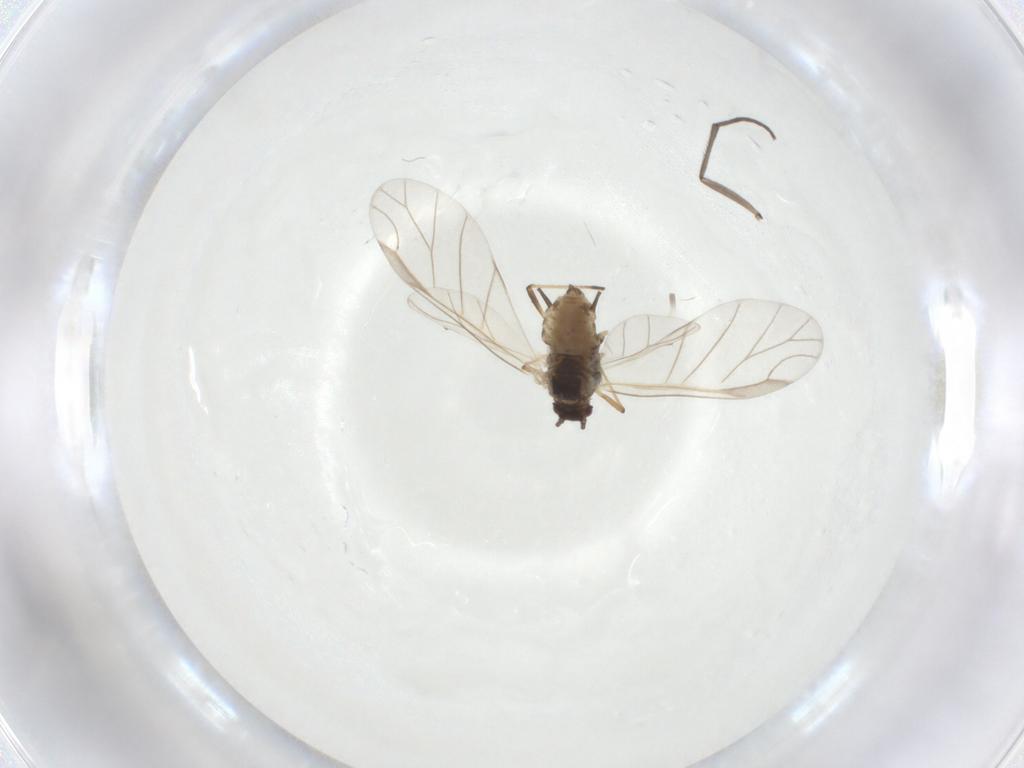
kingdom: Animalia
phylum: Arthropoda
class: Insecta
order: Hemiptera
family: Aphididae
